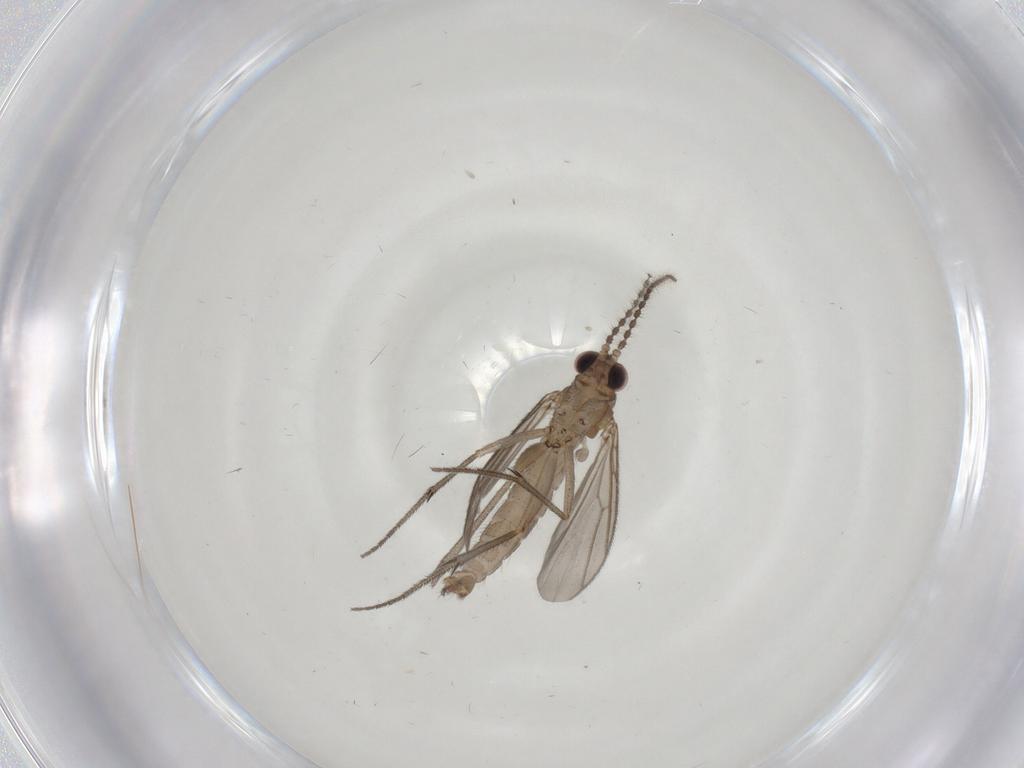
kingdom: Animalia
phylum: Arthropoda
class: Insecta
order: Diptera
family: Mycetophilidae
